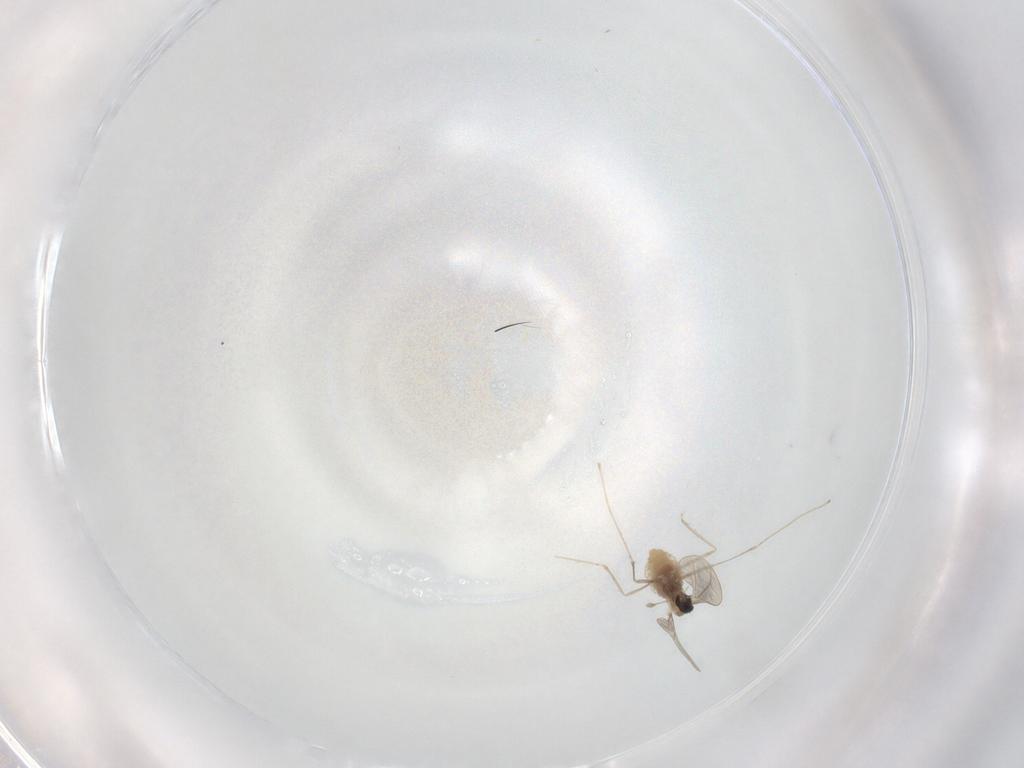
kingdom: Animalia
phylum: Arthropoda
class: Insecta
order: Diptera
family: Cecidomyiidae
